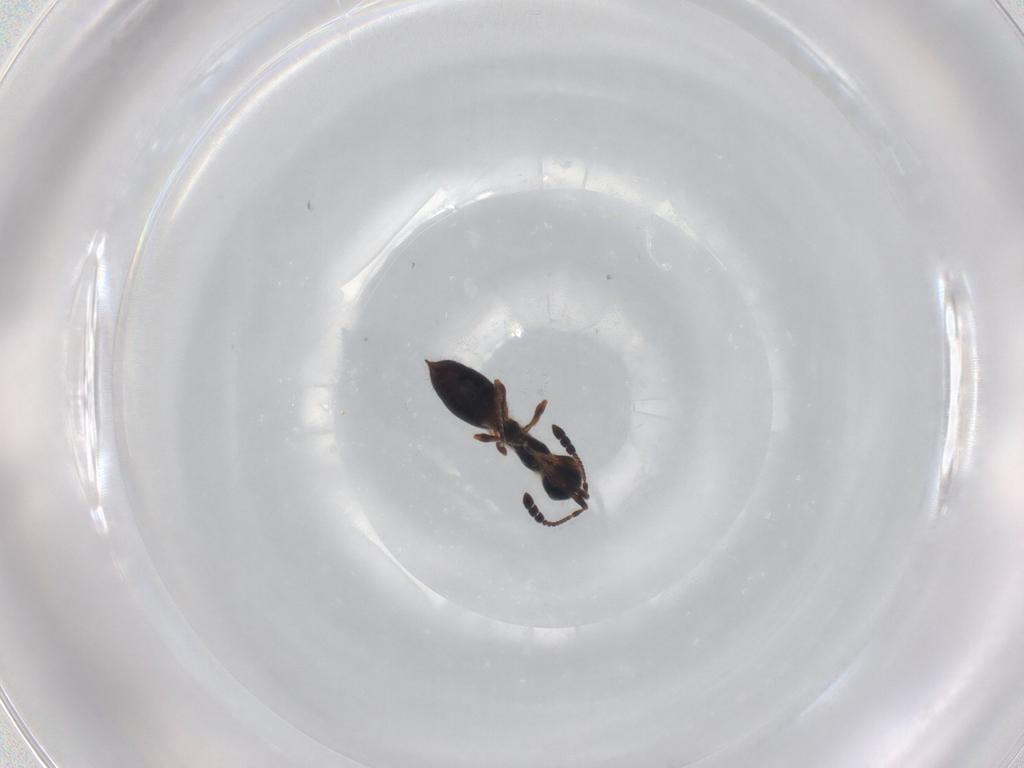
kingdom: Animalia
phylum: Arthropoda
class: Insecta
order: Hymenoptera
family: Diapriidae
